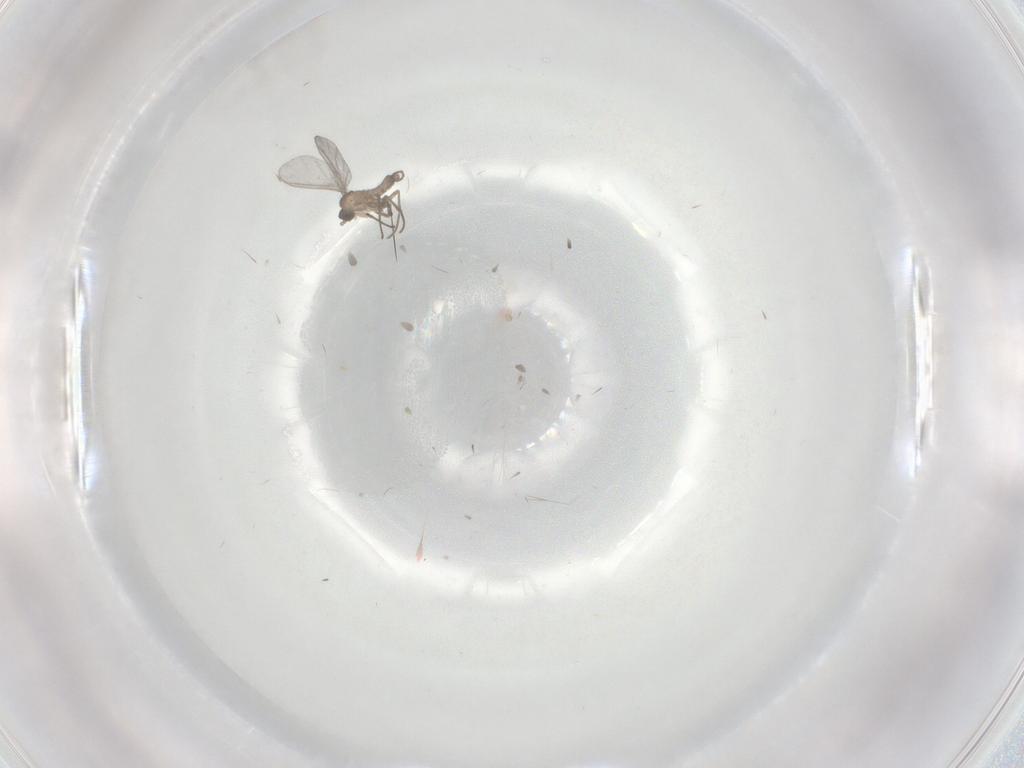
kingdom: Animalia
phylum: Arthropoda
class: Insecta
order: Diptera
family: Sciaridae
